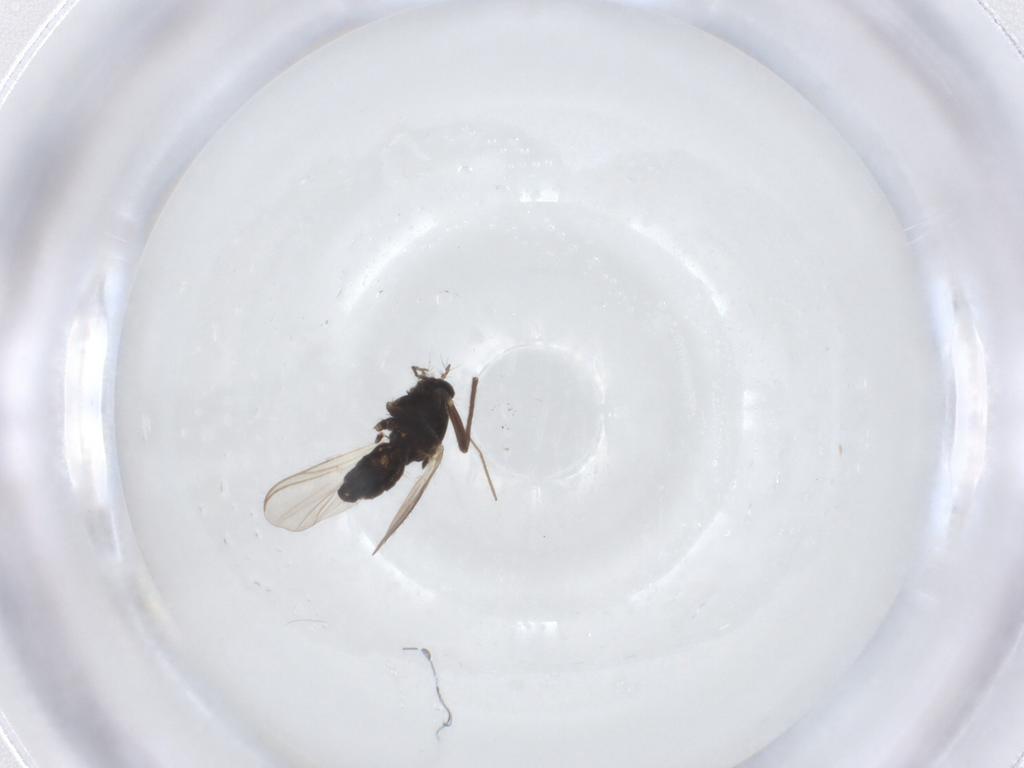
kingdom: Animalia
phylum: Arthropoda
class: Insecta
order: Diptera
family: Chironomidae
